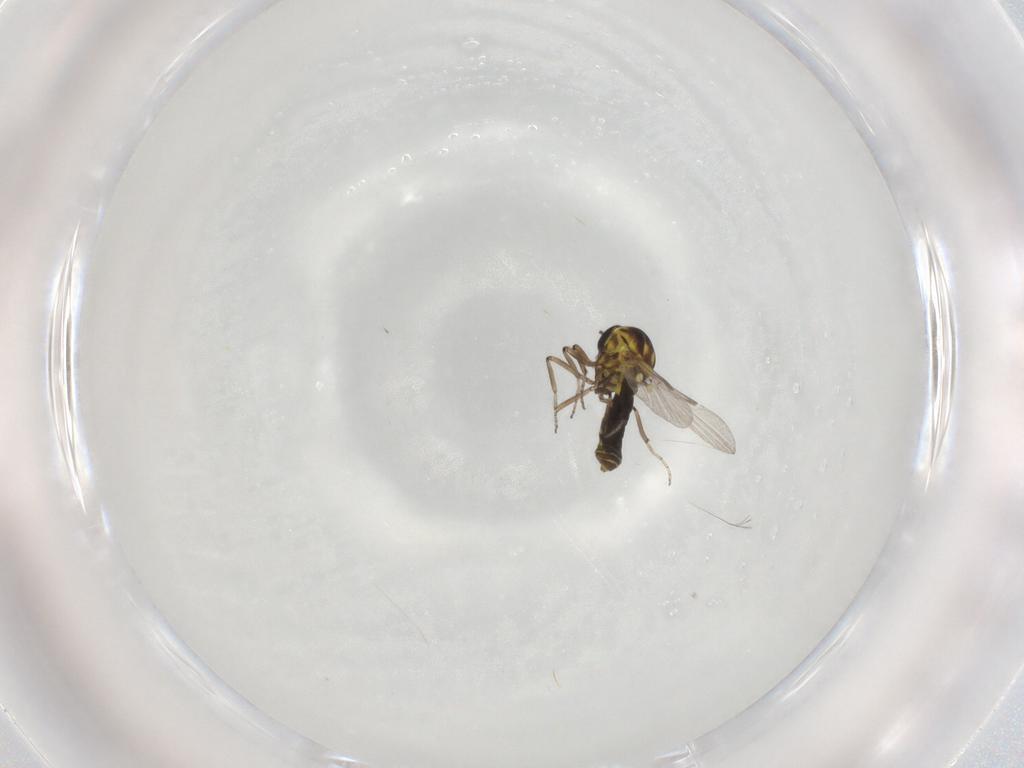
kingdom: Animalia
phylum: Arthropoda
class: Insecta
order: Diptera
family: Ceratopogonidae
